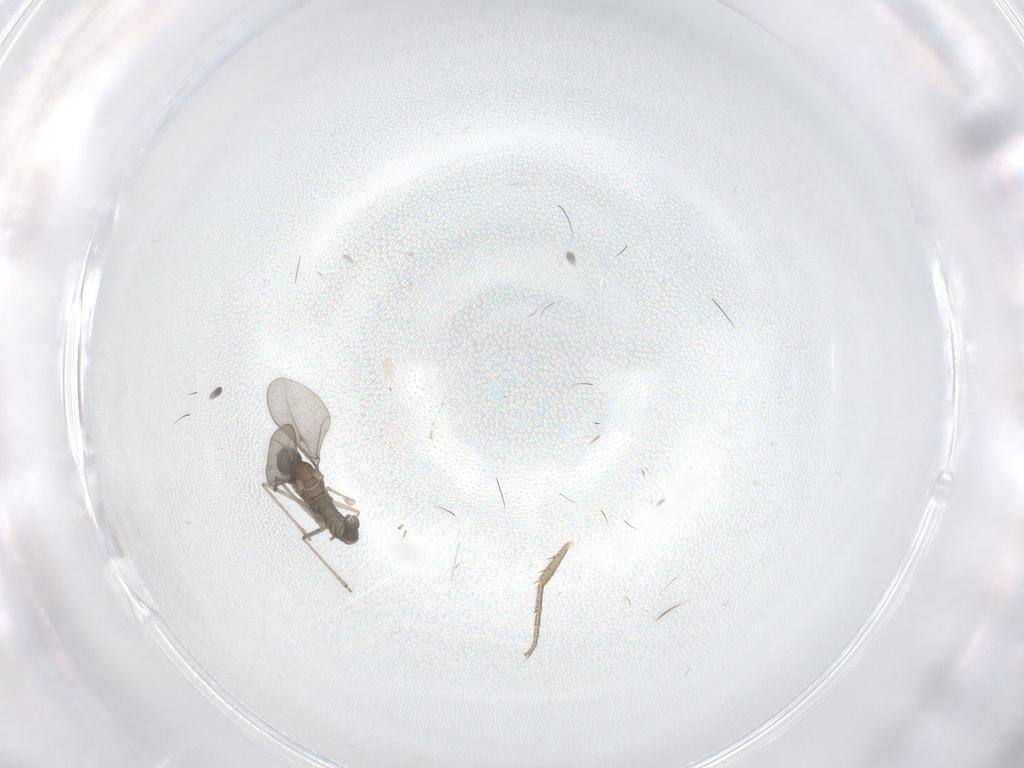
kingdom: Animalia
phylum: Arthropoda
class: Insecta
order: Diptera
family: Phoridae
